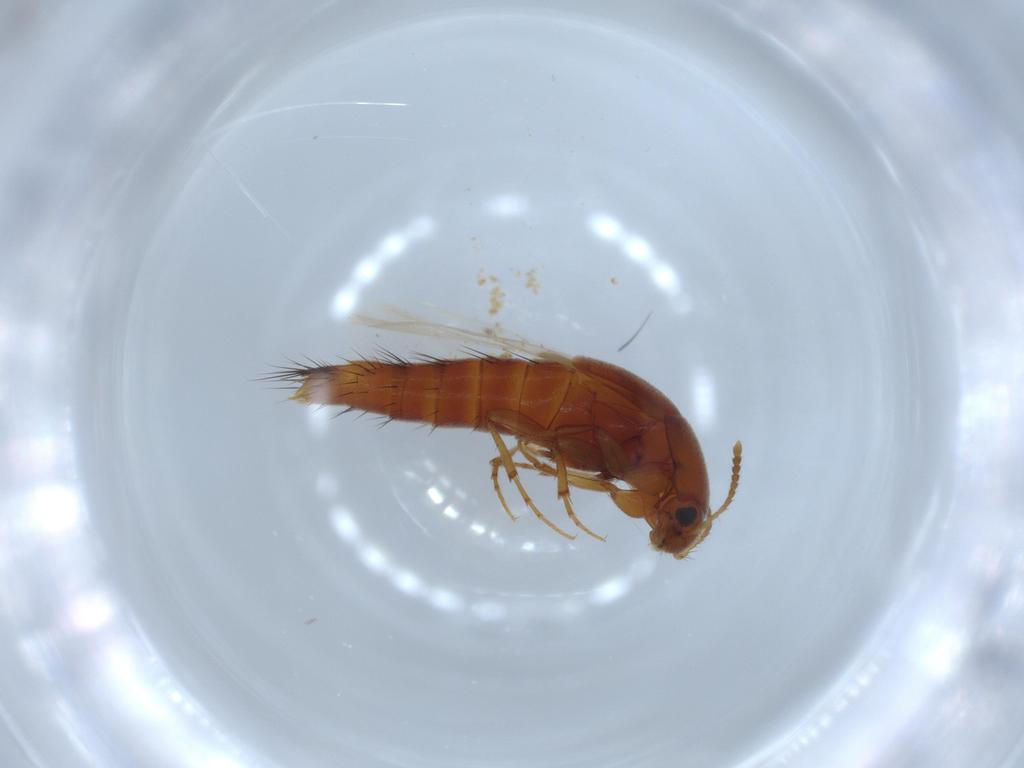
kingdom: Animalia
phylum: Arthropoda
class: Insecta
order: Coleoptera
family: Staphylinidae
